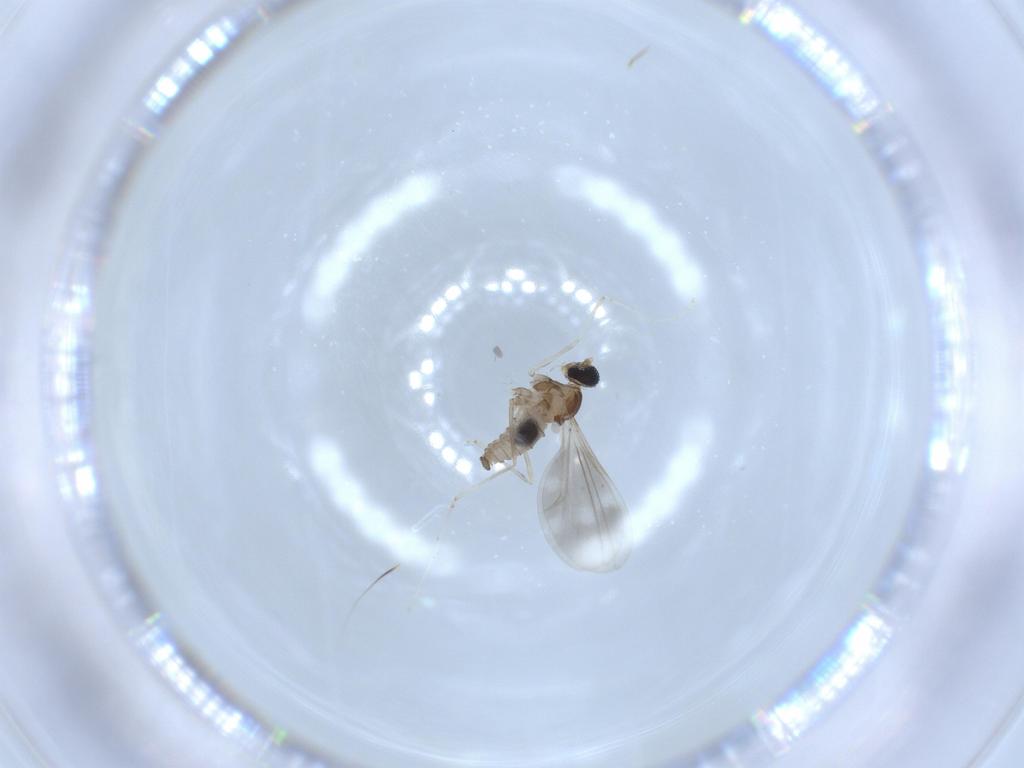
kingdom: Animalia
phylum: Arthropoda
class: Insecta
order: Diptera
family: Cecidomyiidae
